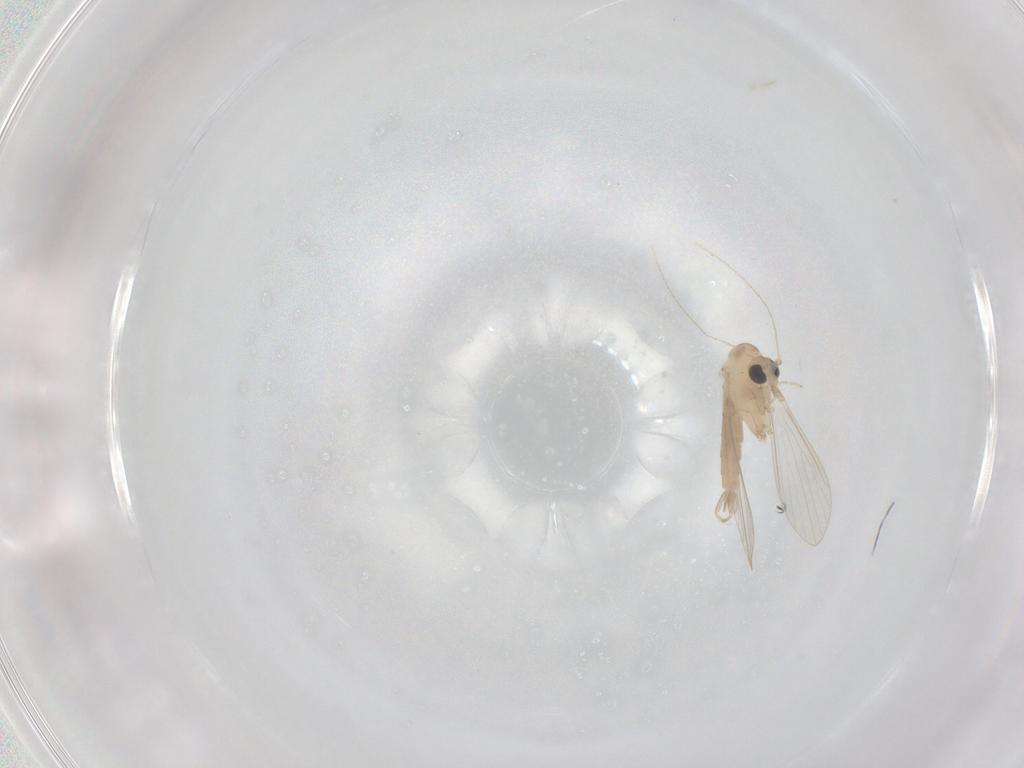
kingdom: Animalia
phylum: Arthropoda
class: Insecta
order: Diptera
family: Psychodidae
